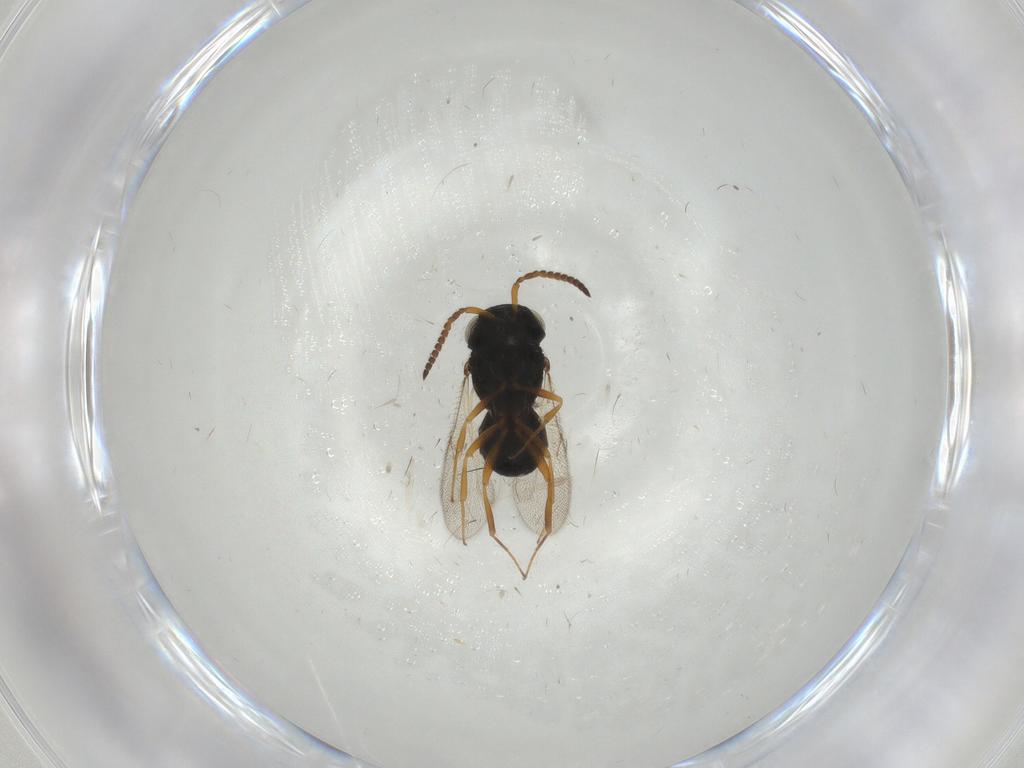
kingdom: Animalia
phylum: Arthropoda
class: Insecta
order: Hymenoptera
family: Scelionidae
